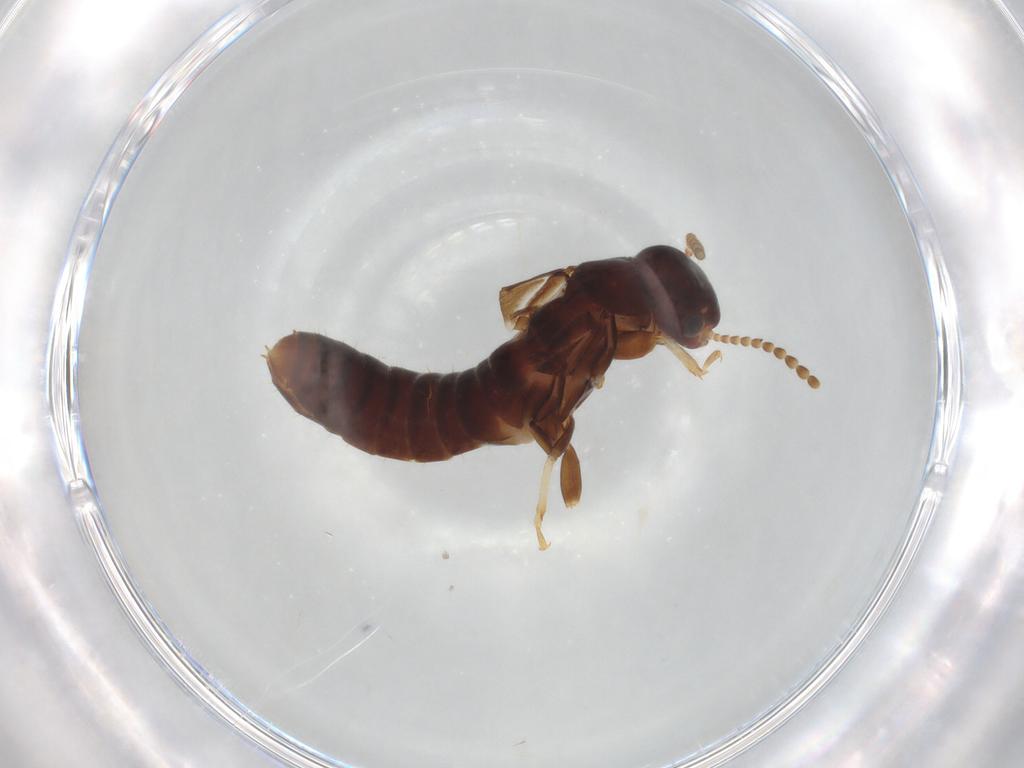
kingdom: Animalia
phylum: Arthropoda
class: Insecta
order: Blattodea
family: Kalotermitidae
